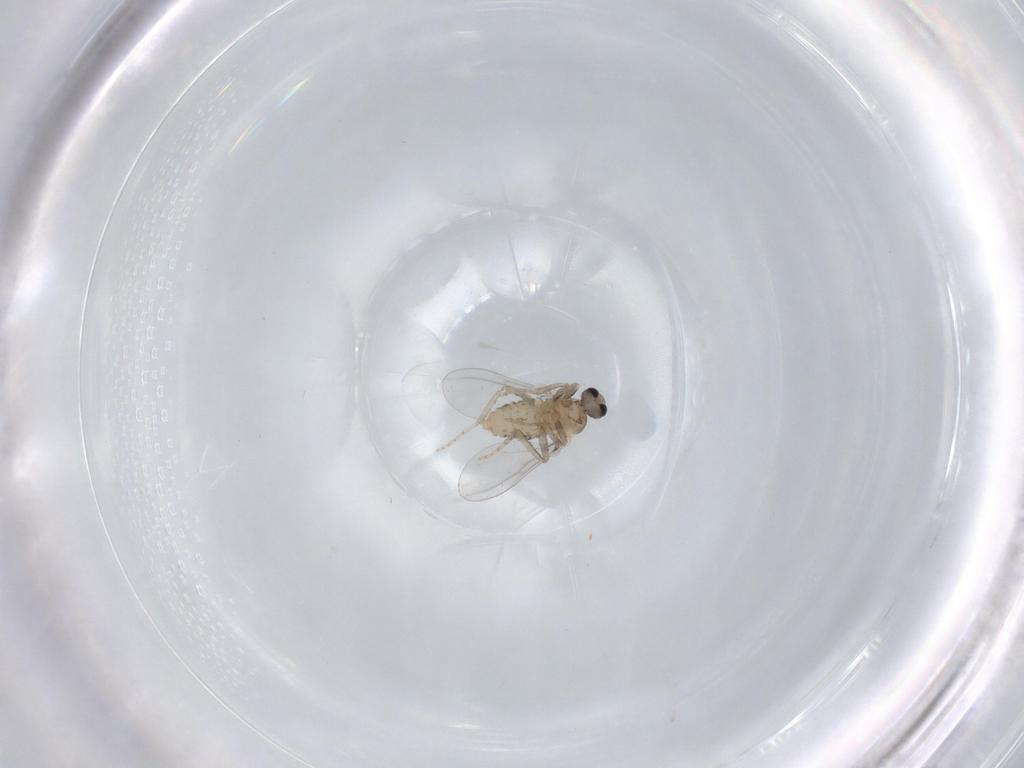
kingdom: Animalia
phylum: Arthropoda
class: Insecta
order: Diptera
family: Cecidomyiidae
